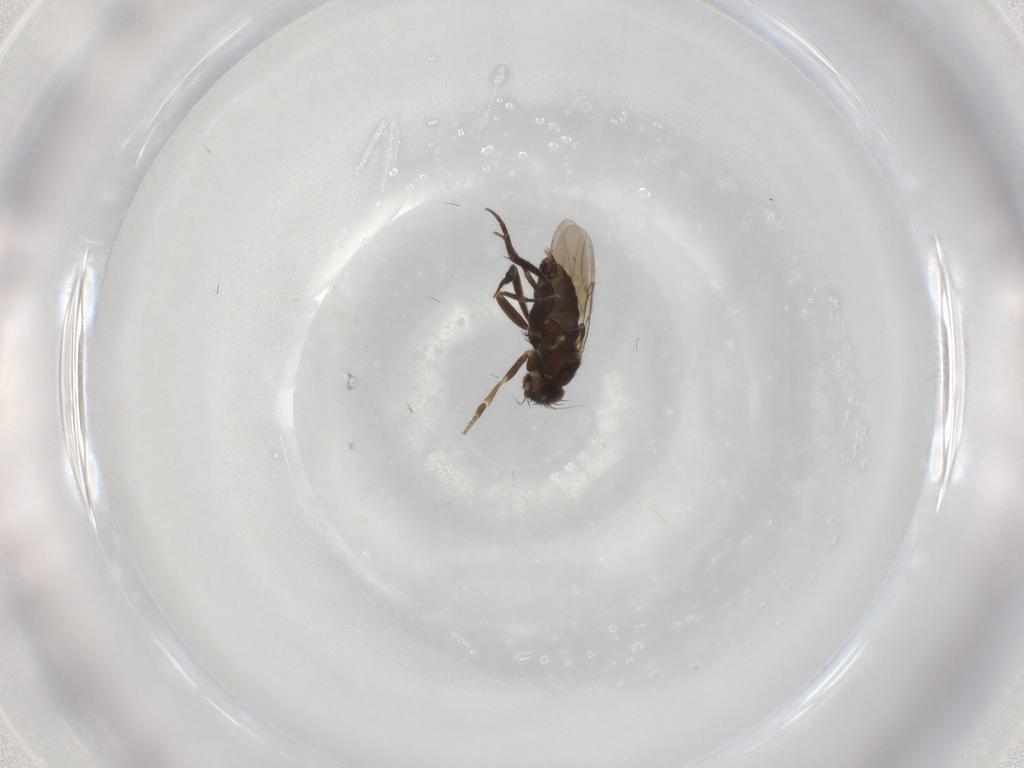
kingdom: Animalia
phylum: Arthropoda
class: Insecta
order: Diptera
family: Phoridae
